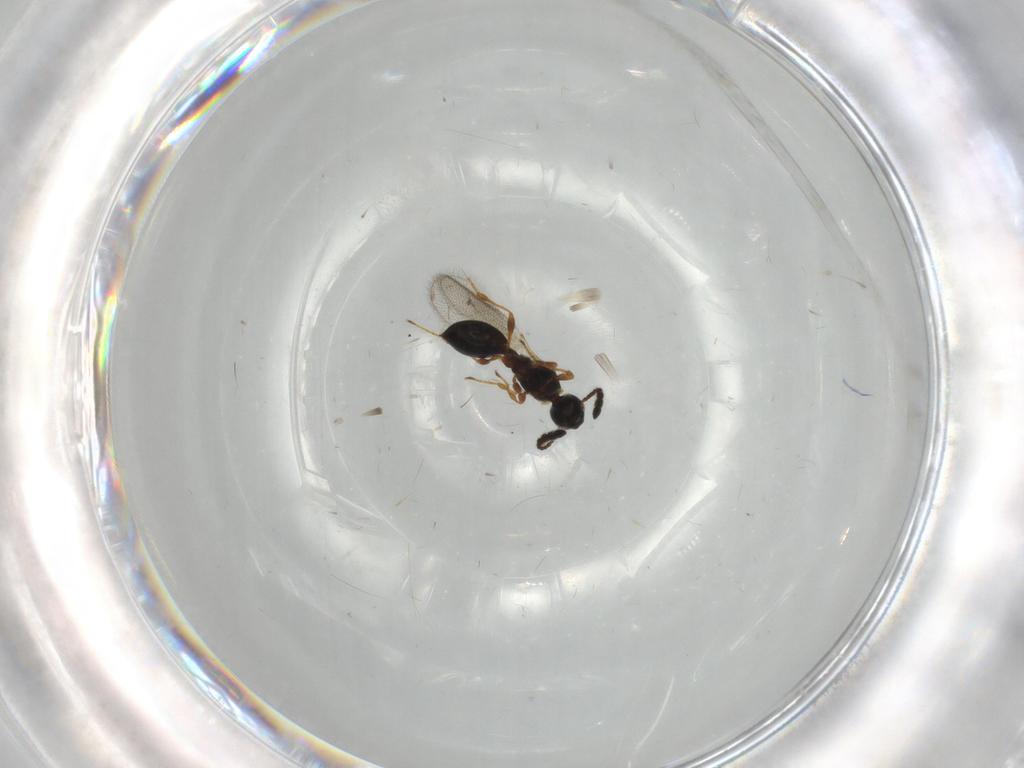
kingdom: Animalia
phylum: Arthropoda
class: Insecta
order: Hymenoptera
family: Diapriidae
